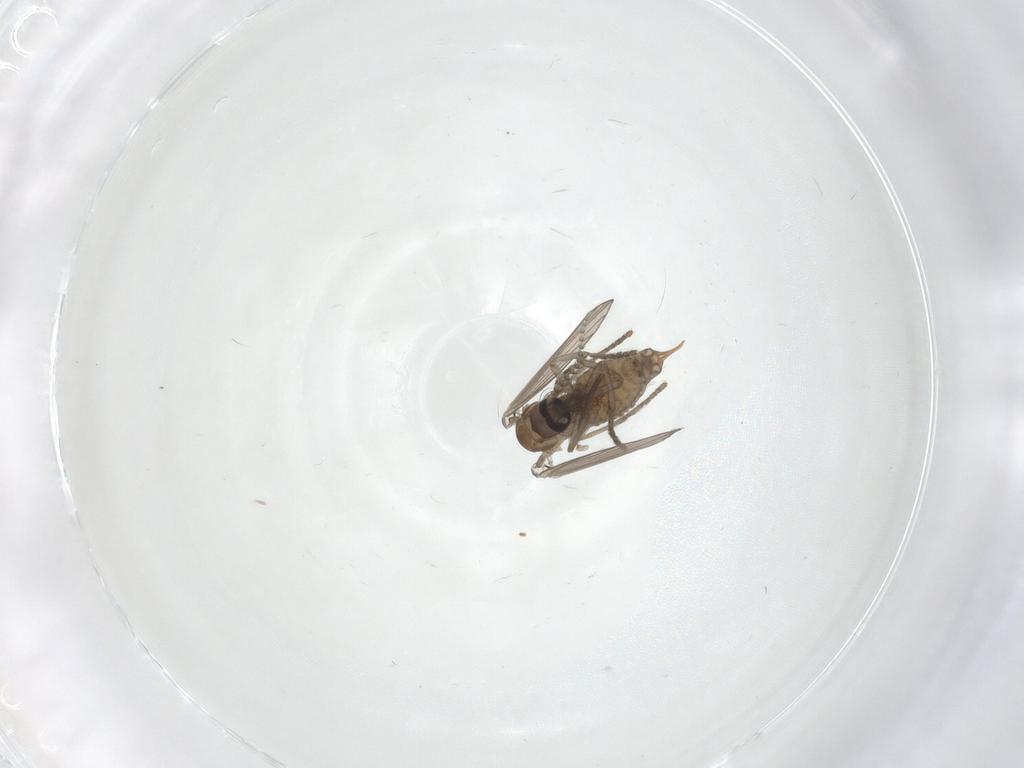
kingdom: Animalia
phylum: Arthropoda
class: Insecta
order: Diptera
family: Psychodidae
